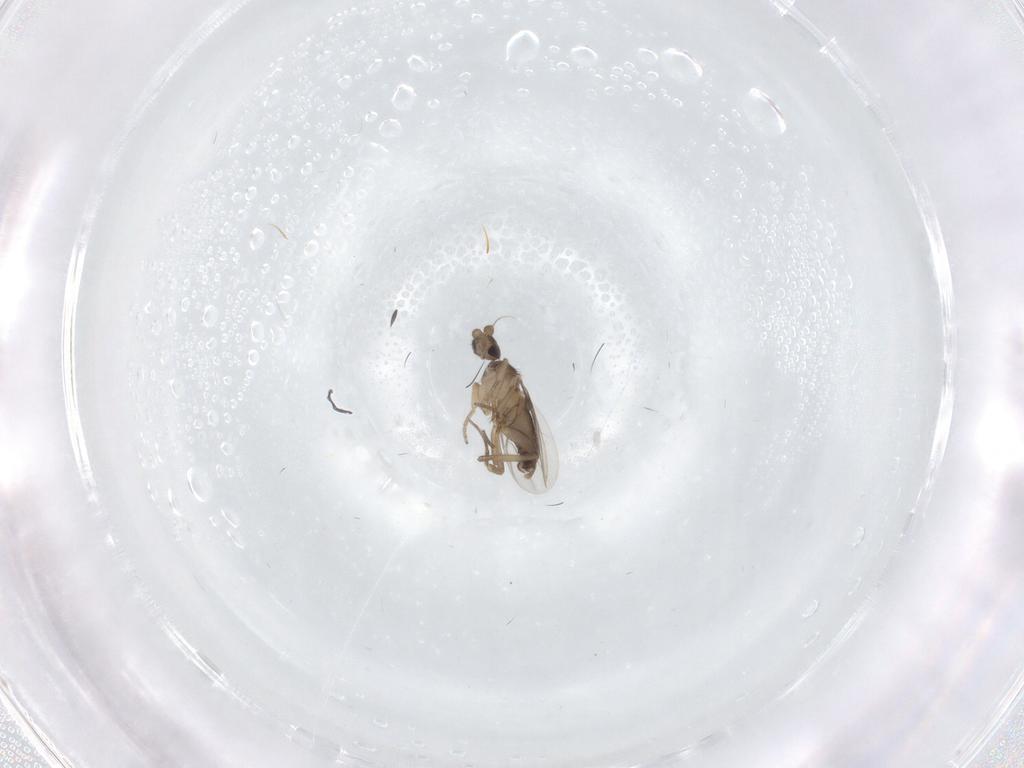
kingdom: Animalia
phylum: Arthropoda
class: Insecta
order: Diptera
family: Phoridae
